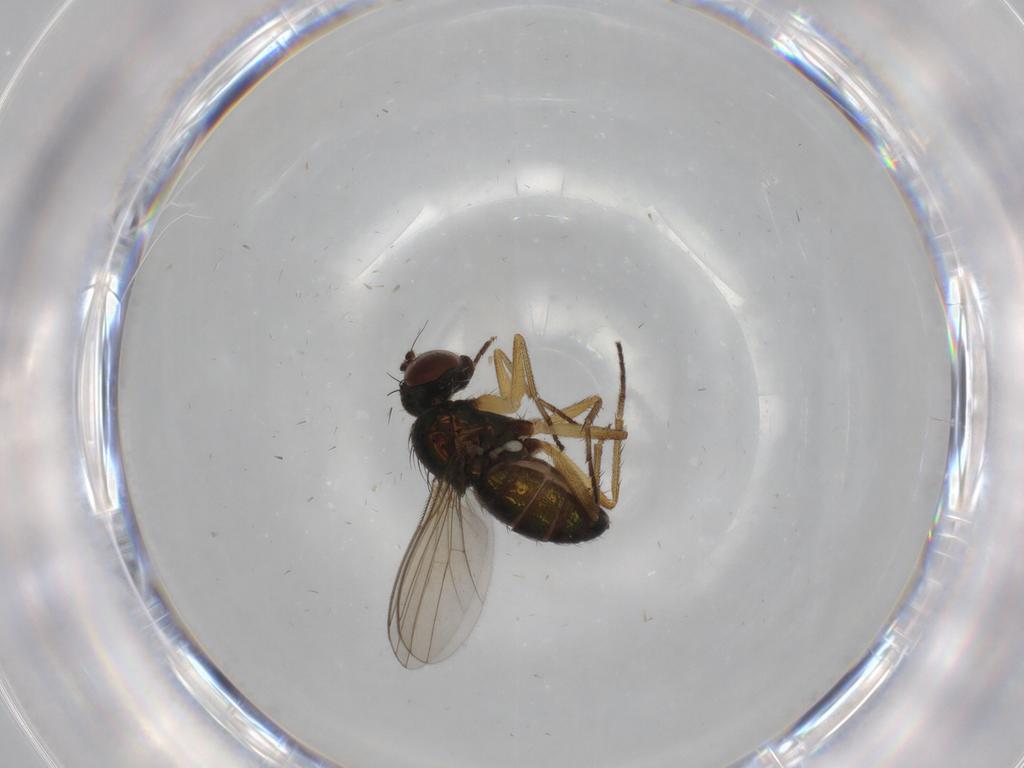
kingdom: Animalia
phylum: Arthropoda
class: Insecta
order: Diptera
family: Dolichopodidae
